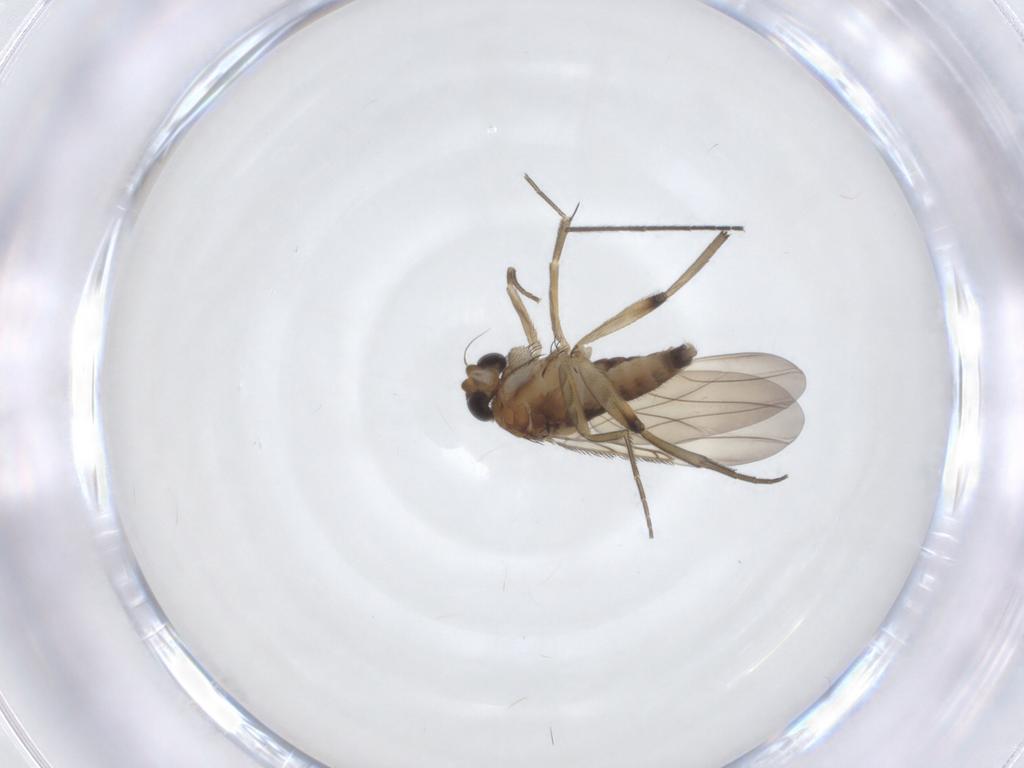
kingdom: Animalia
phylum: Arthropoda
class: Insecta
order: Diptera
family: Phoridae
